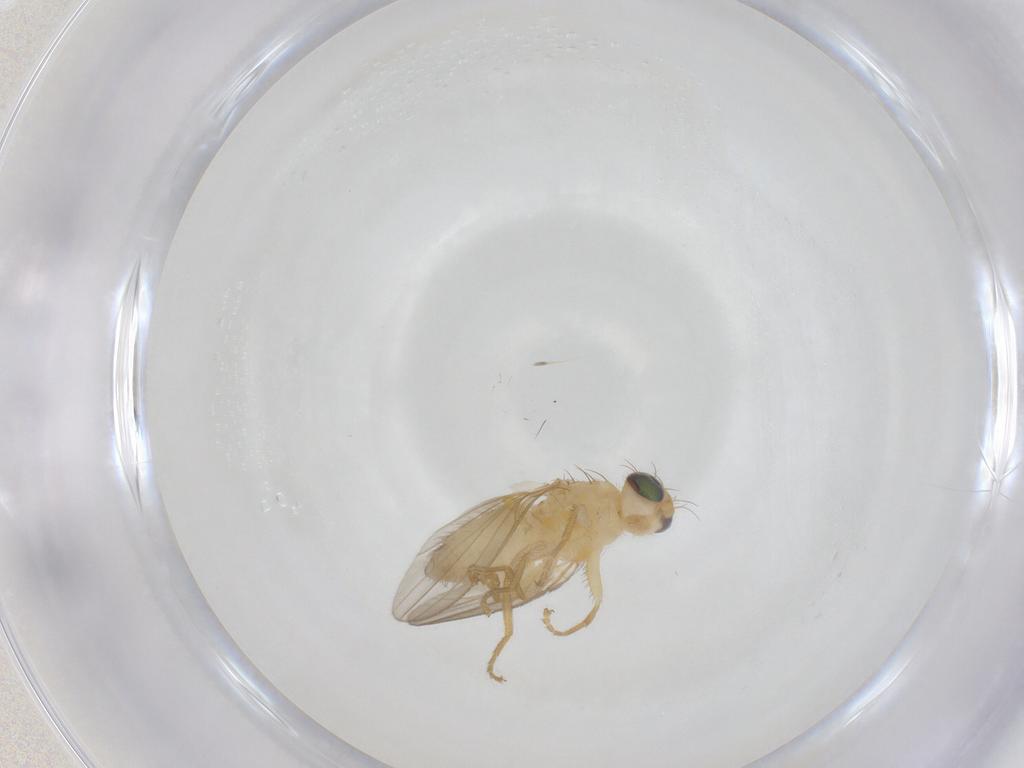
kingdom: Animalia
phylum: Arthropoda
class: Insecta
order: Diptera
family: Chyromyidae
